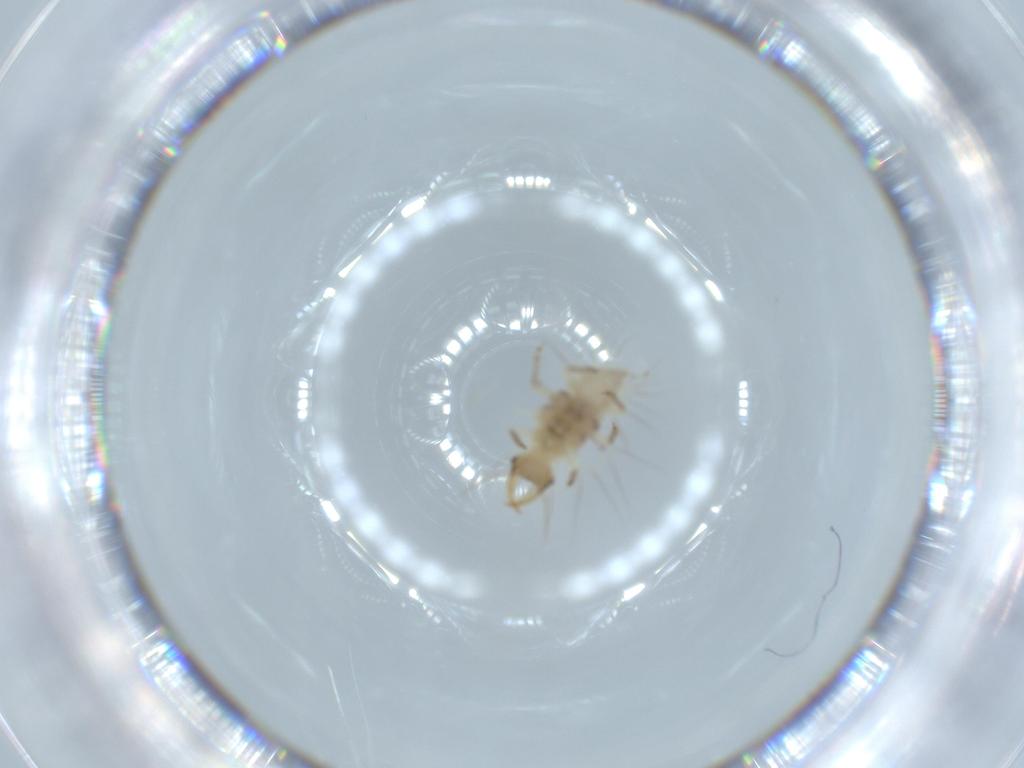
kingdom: Animalia
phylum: Arthropoda
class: Insecta
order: Neuroptera
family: Chrysopidae
